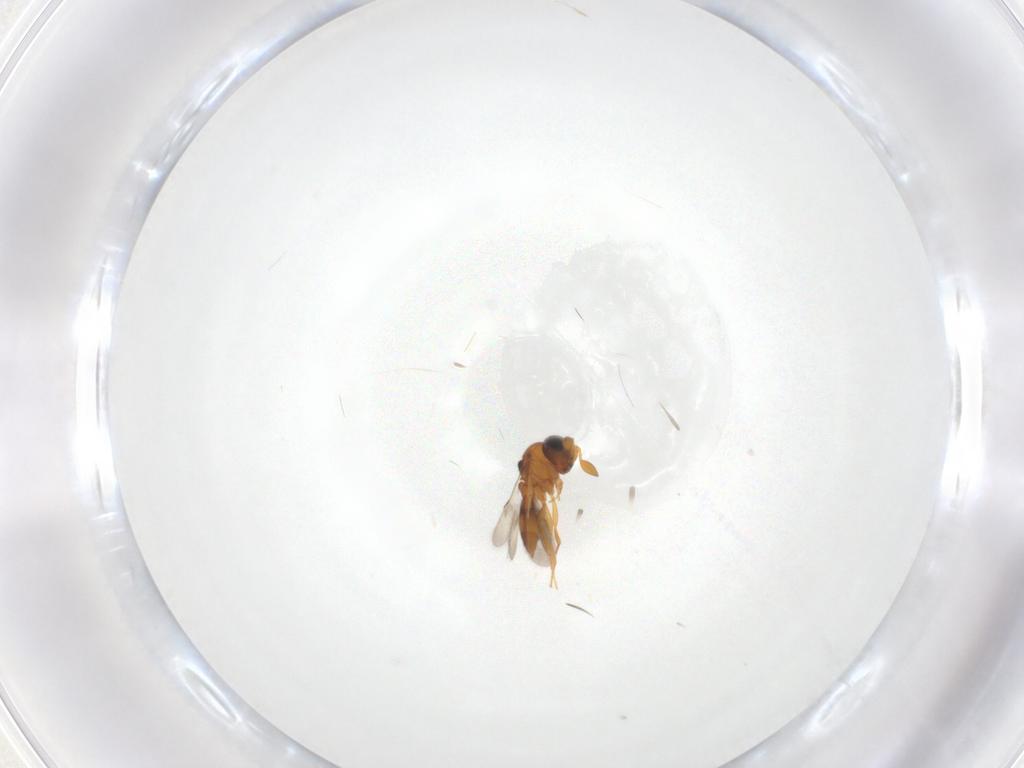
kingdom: Animalia
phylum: Arthropoda
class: Insecta
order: Hymenoptera
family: Scelionidae
